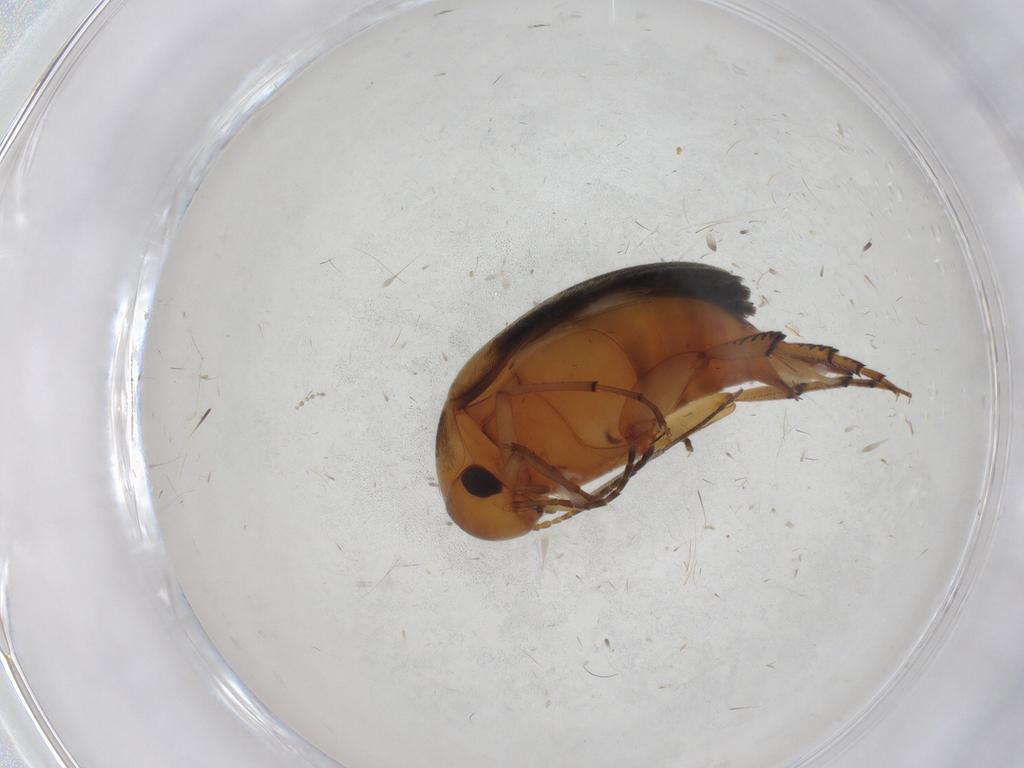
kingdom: Animalia
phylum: Arthropoda
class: Insecta
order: Coleoptera
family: Mordellidae
